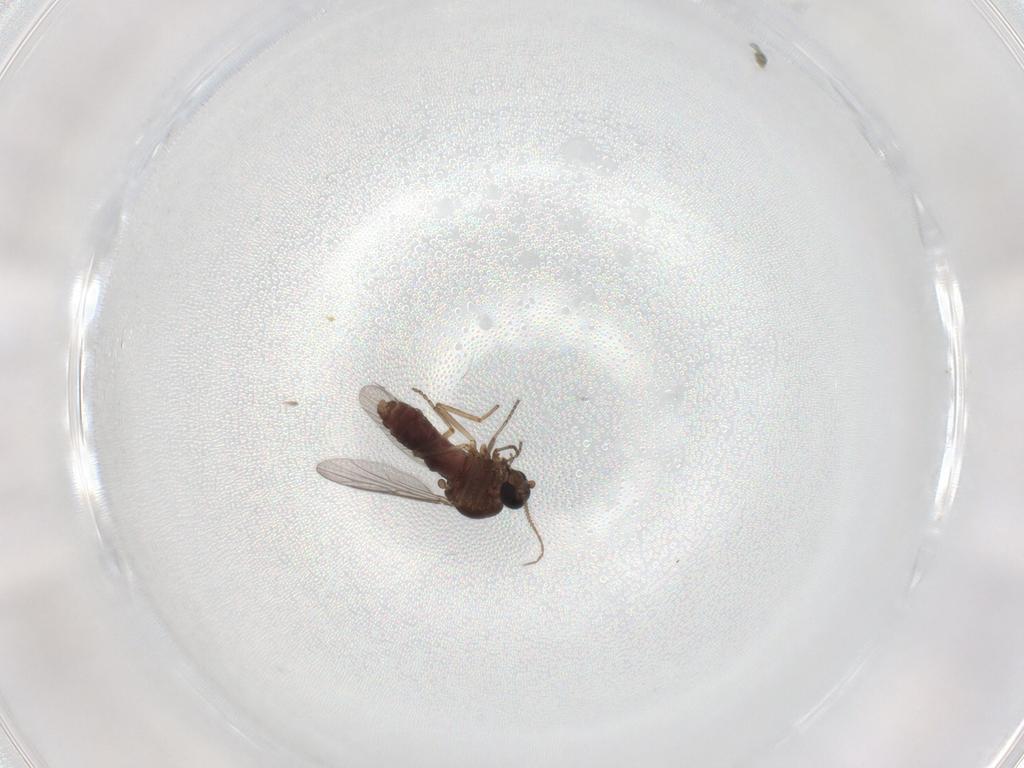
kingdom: Animalia
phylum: Arthropoda
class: Insecta
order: Diptera
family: Ceratopogonidae
